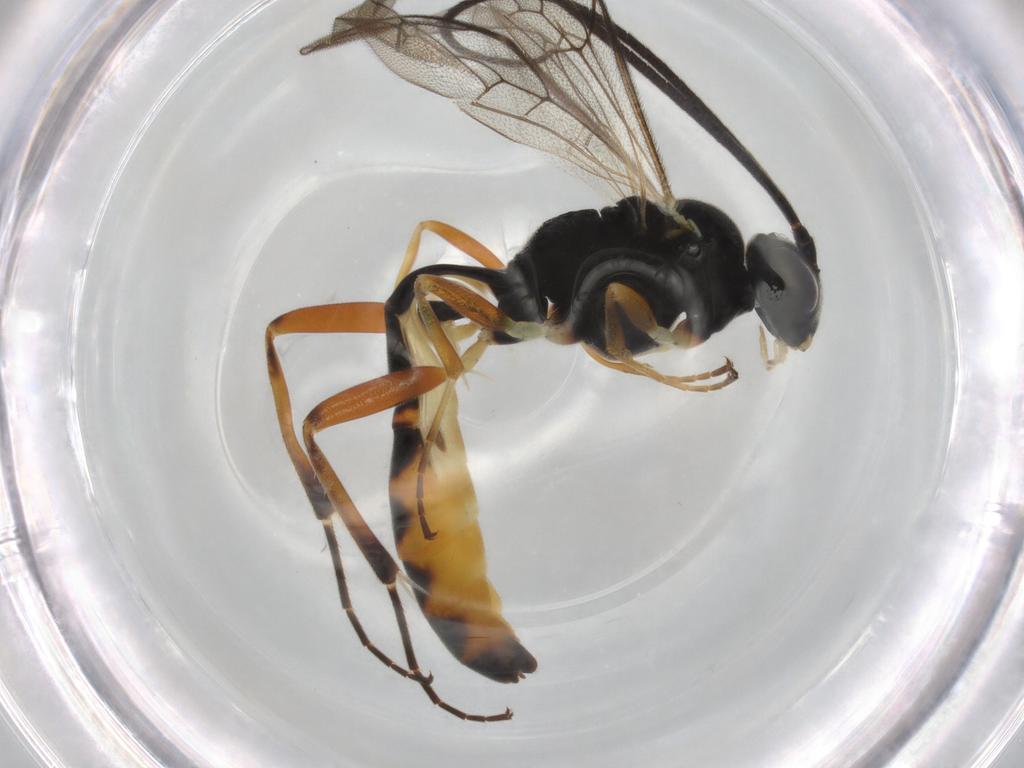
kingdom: Animalia
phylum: Arthropoda
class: Insecta
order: Hymenoptera
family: Ichneumonidae
